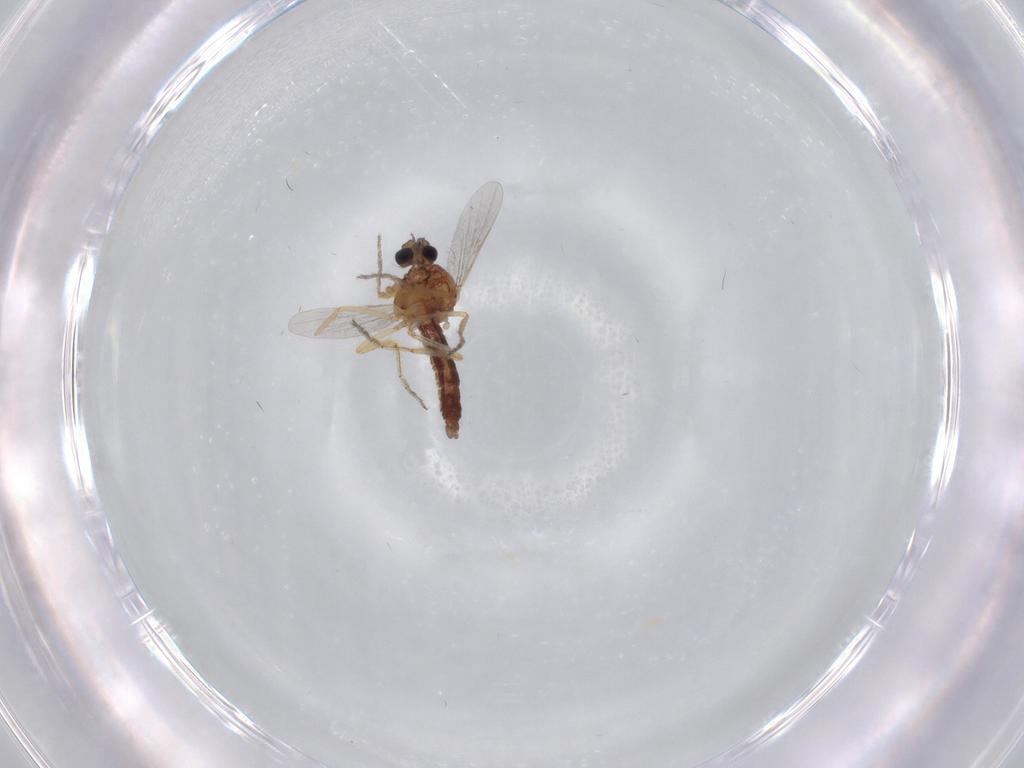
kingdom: Animalia
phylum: Arthropoda
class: Insecta
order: Diptera
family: Ceratopogonidae
